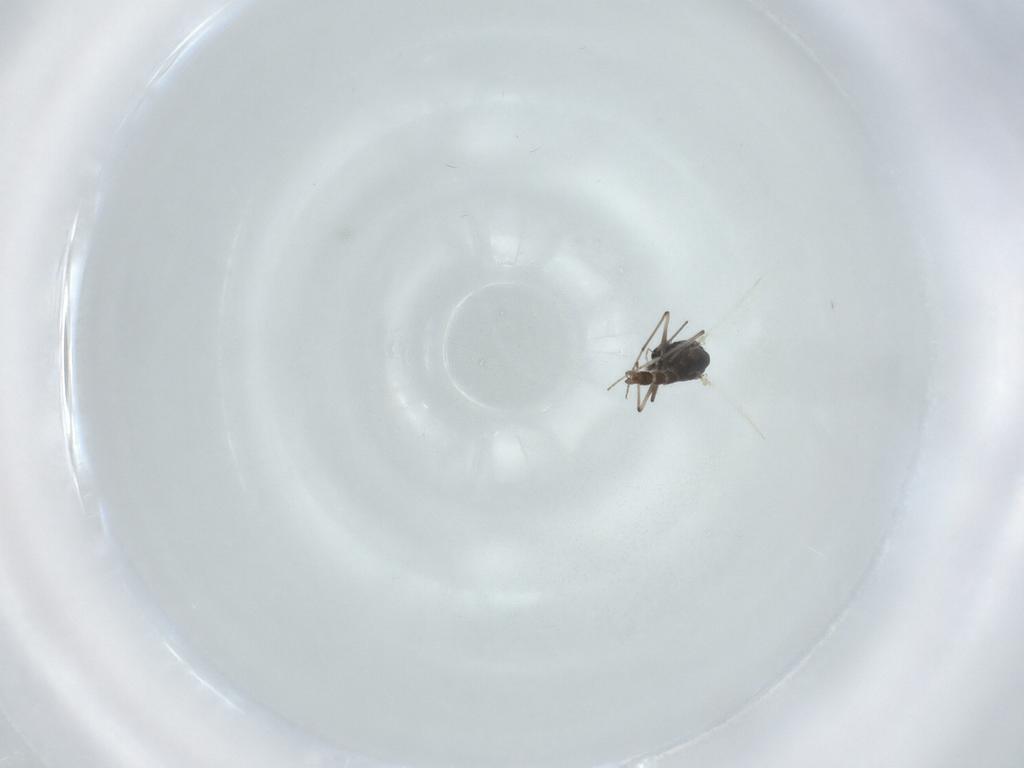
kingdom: Animalia
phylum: Arthropoda
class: Insecta
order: Diptera
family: Chironomidae
